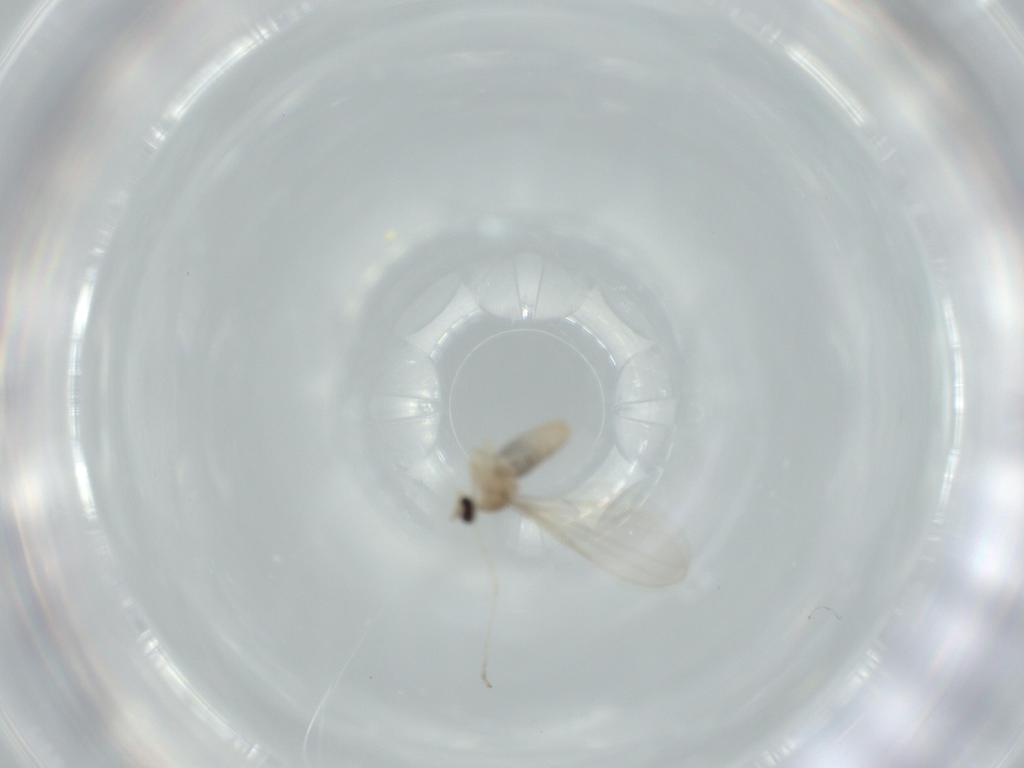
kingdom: Animalia
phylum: Arthropoda
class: Insecta
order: Diptera
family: Cecidomyiidae
